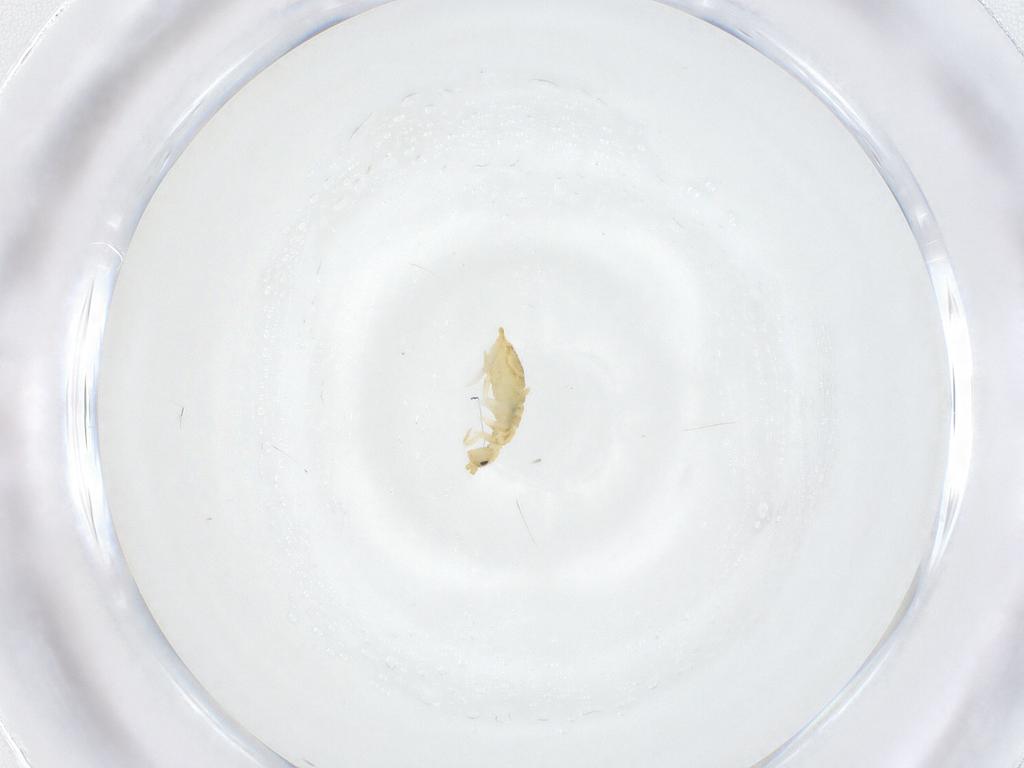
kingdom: Animalia
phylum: Arthropoda
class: Collembola
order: Entomobryomorpha
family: Entomobryidae
